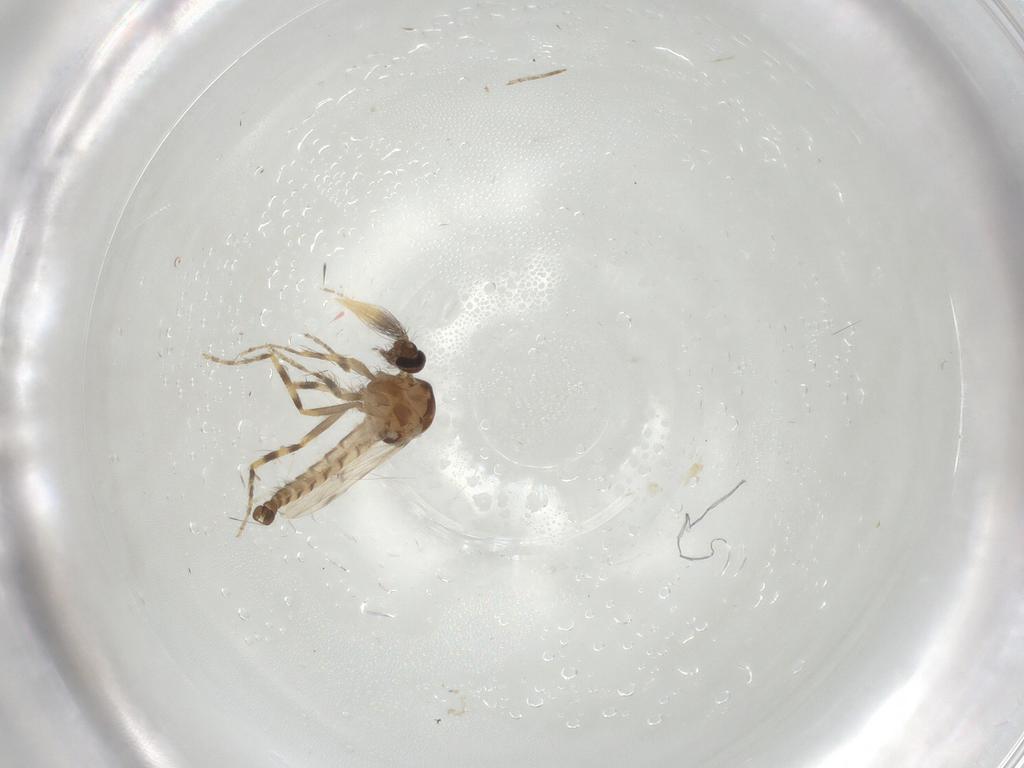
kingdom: Animalia
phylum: Arthropoda
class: Insecta
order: Diptera
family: Ceratopogonidae
